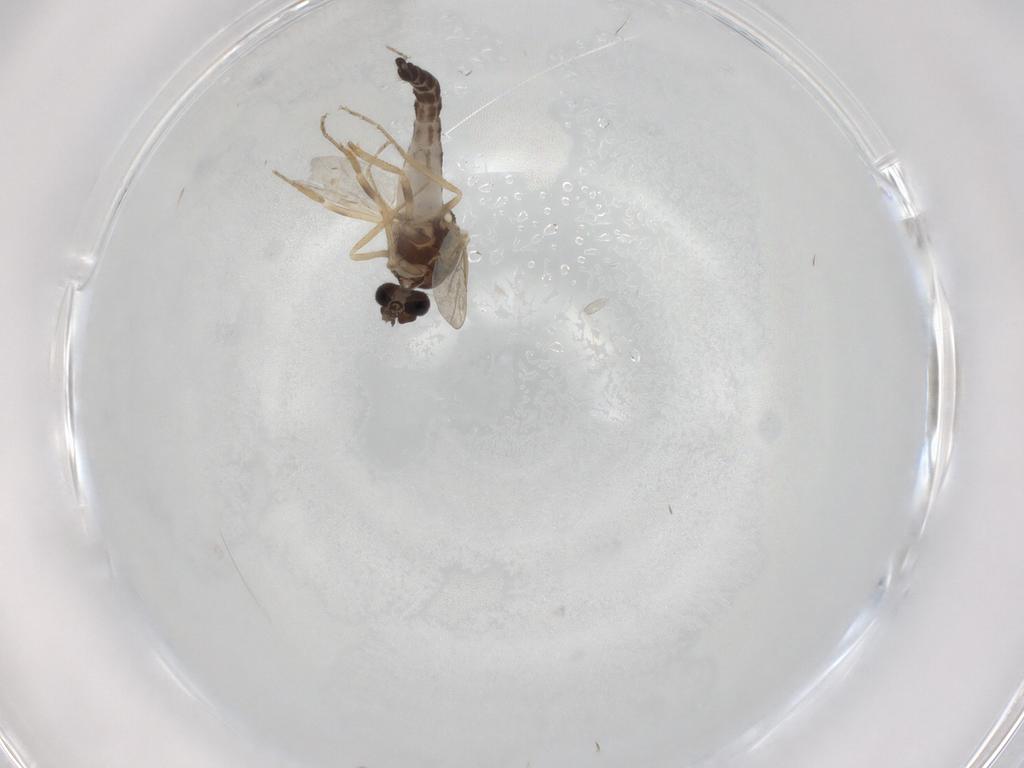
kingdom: Animalia
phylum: Arthropoda
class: Insecta
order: Diptera
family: Ceratopogonidae
